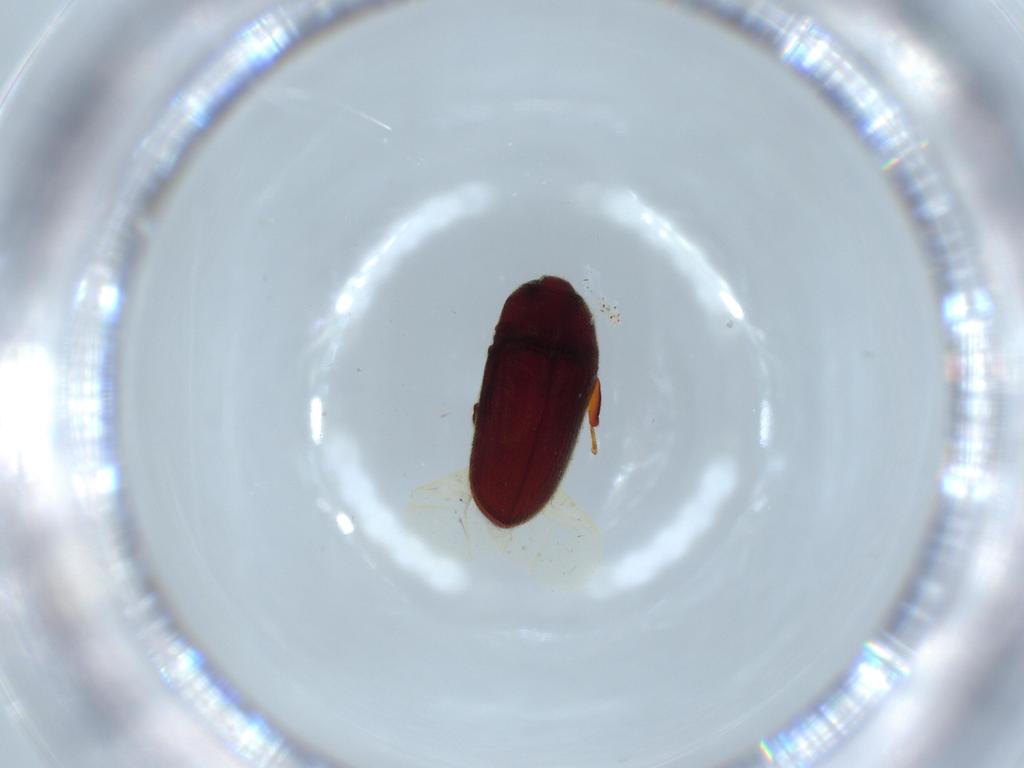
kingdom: Animalia
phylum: Arthropoda
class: Insecta
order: Coleoptera
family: Throscidae
